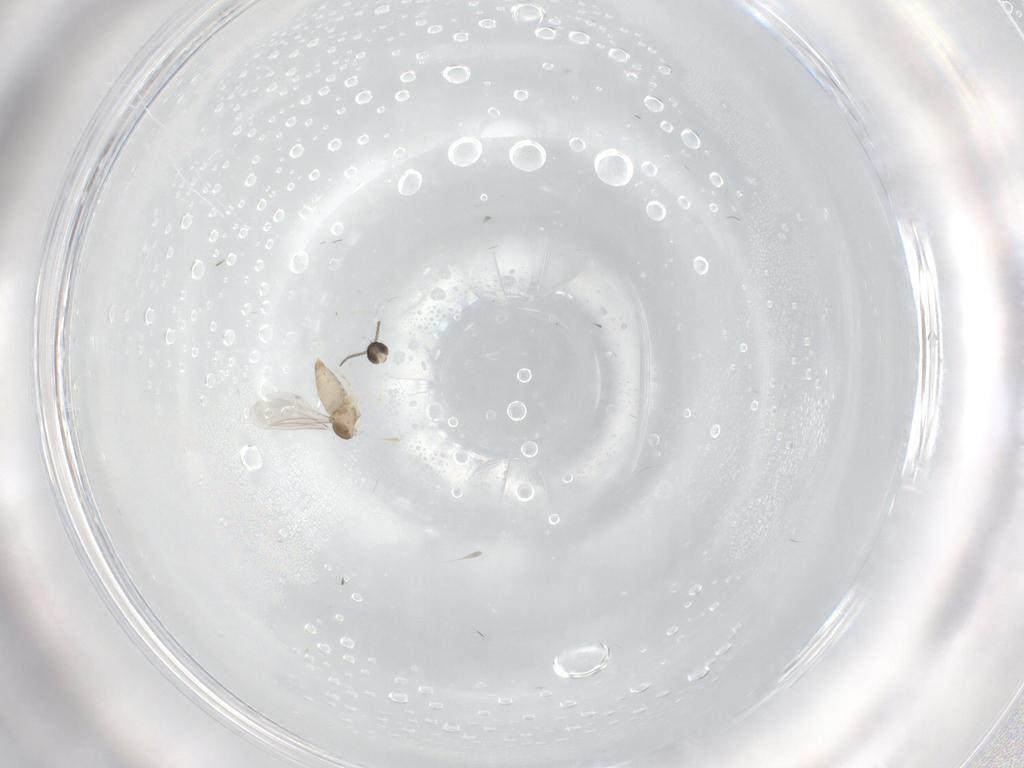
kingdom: Animalia
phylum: Arthropoda
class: Insecta
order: Diptera
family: Cecidomyiidae
